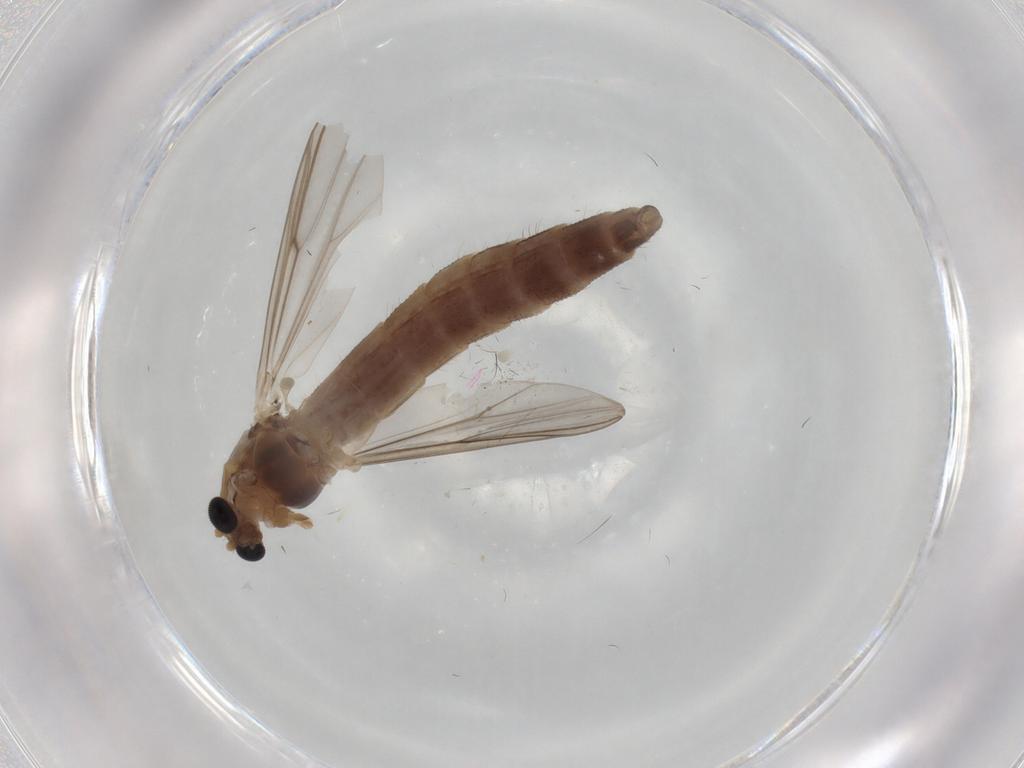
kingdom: Animalia
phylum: Arthropoda
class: Insecta
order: Diptera
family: Chironomidae
